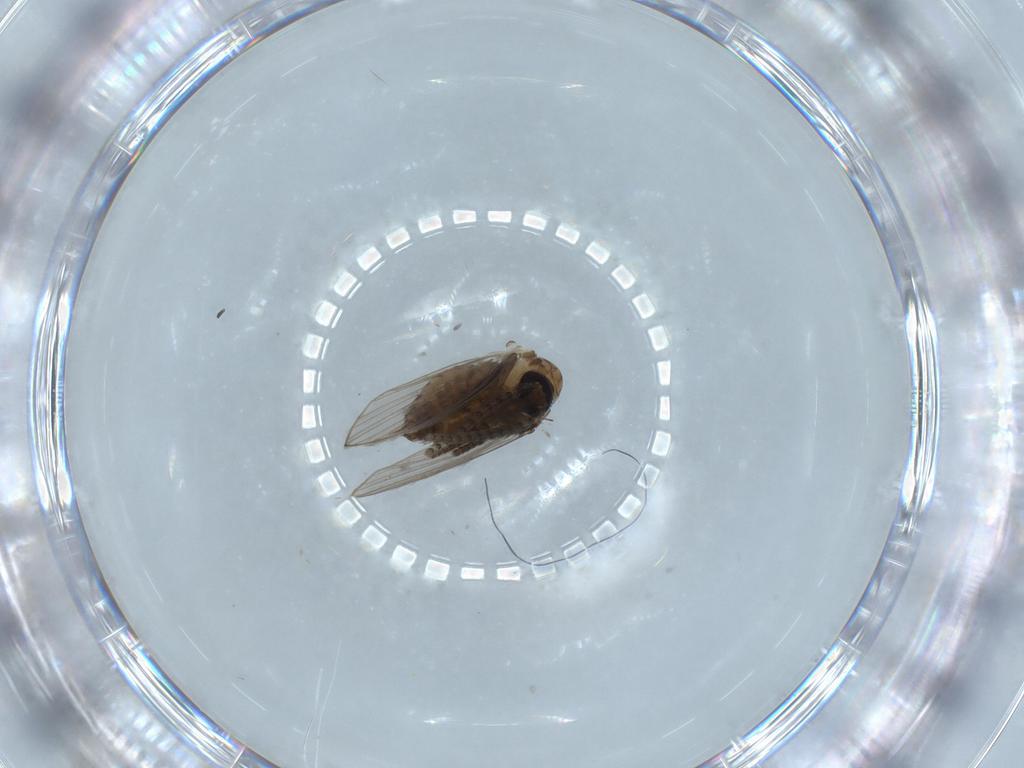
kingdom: Animalia
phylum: Arthropoda
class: Insecta
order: Diptera
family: Psychodidae
